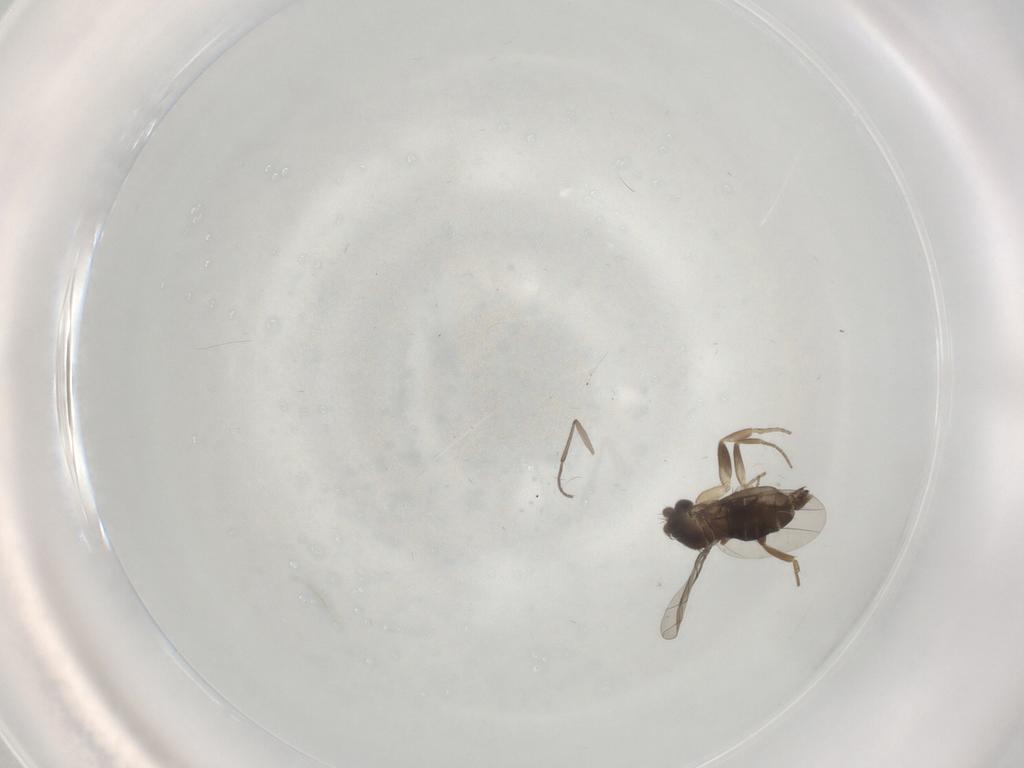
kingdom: Animalia
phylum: Arthropoda
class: Insecta
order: Diptera
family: Phoridae
